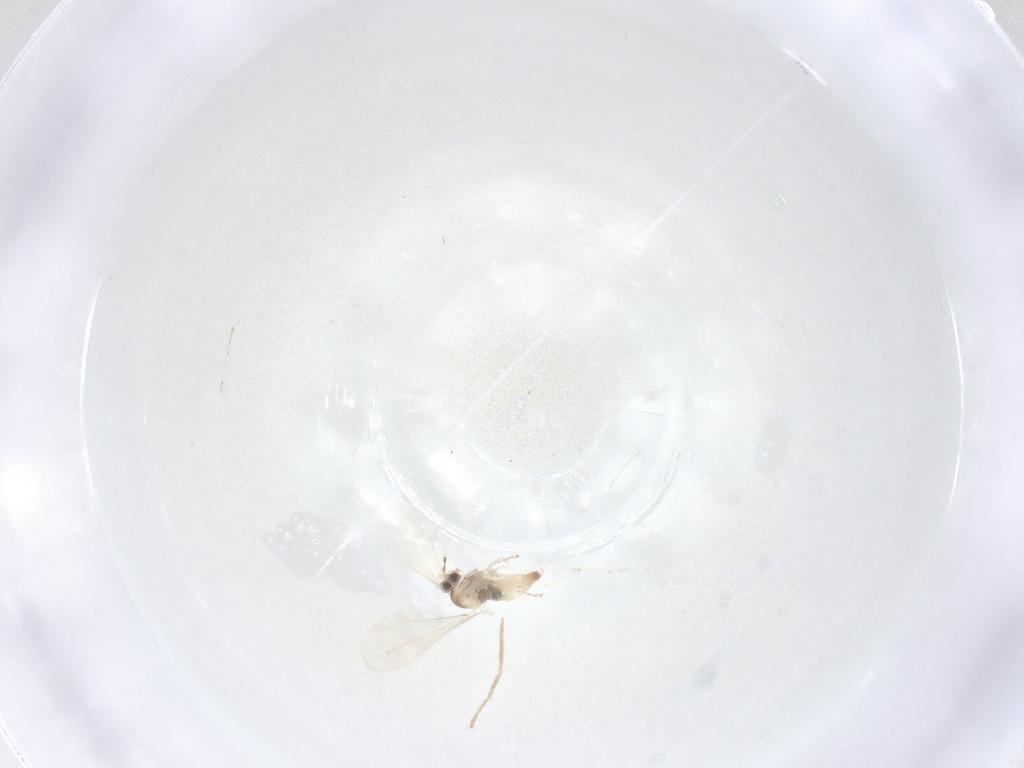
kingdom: Animalia
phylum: Arthropoda
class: Insecta
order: Diptera
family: Cecidomyiidae
